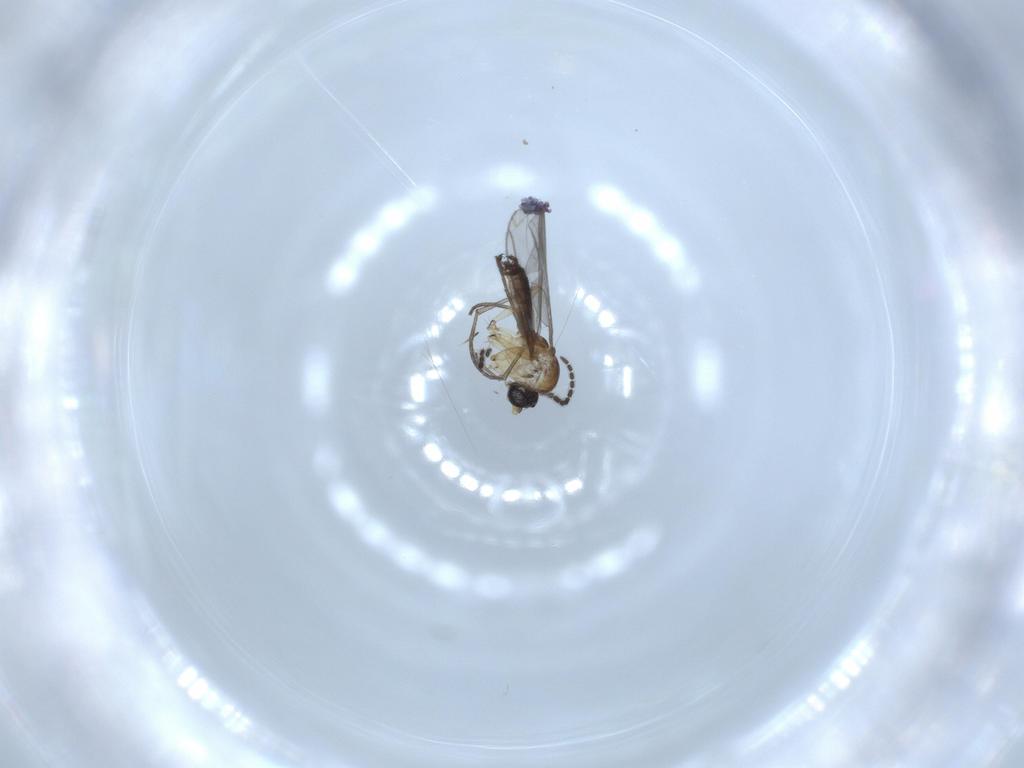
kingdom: Animalia
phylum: Arthropoda
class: Insecta
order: Diptera
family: Sciaridae
